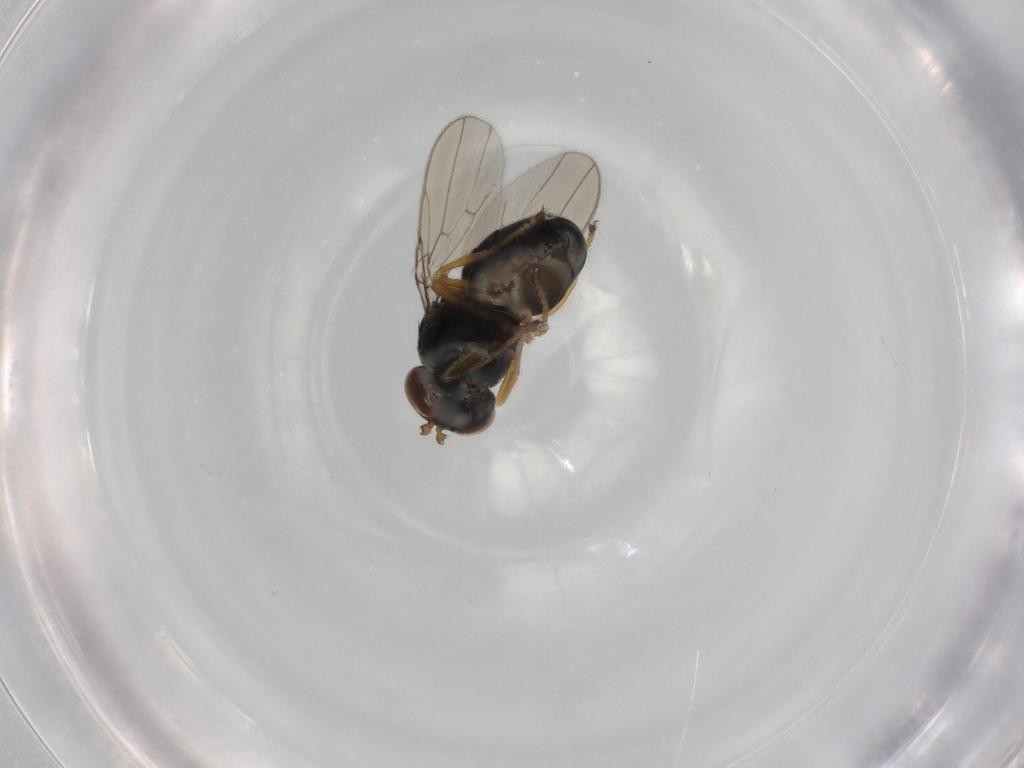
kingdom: Animalia
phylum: Arthropoda
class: Insecta
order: Diptera
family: Ephydridae
